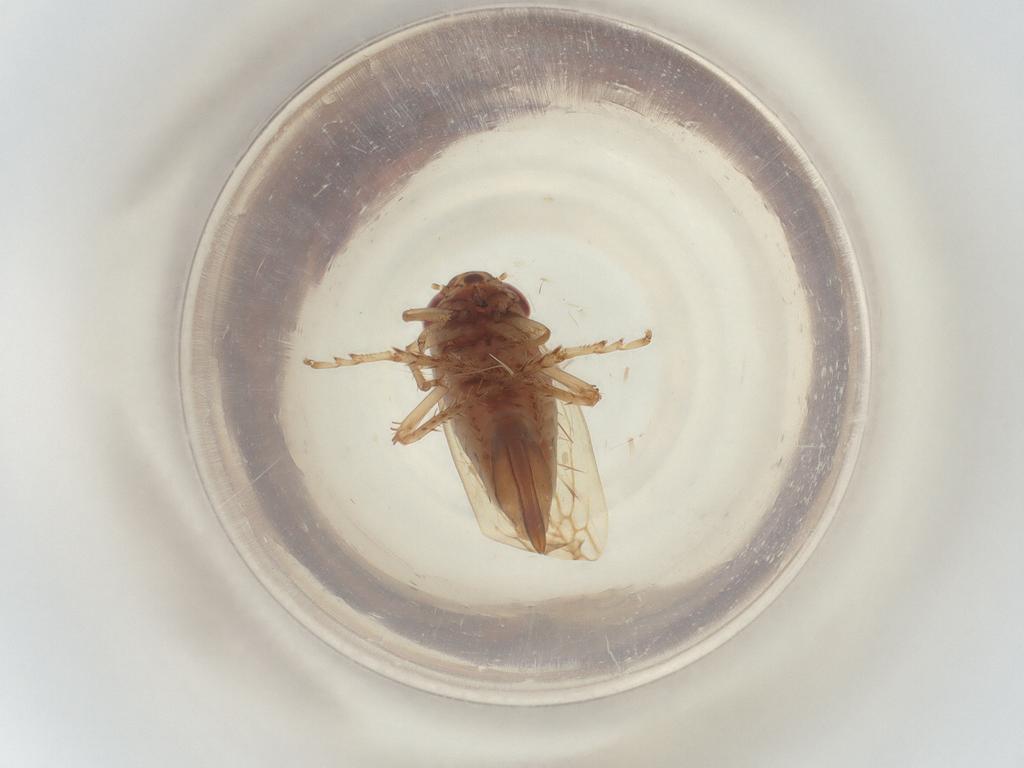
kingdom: Animalia
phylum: Arthropoda
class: Insecta
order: Hemiptera
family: Cicadellidae
